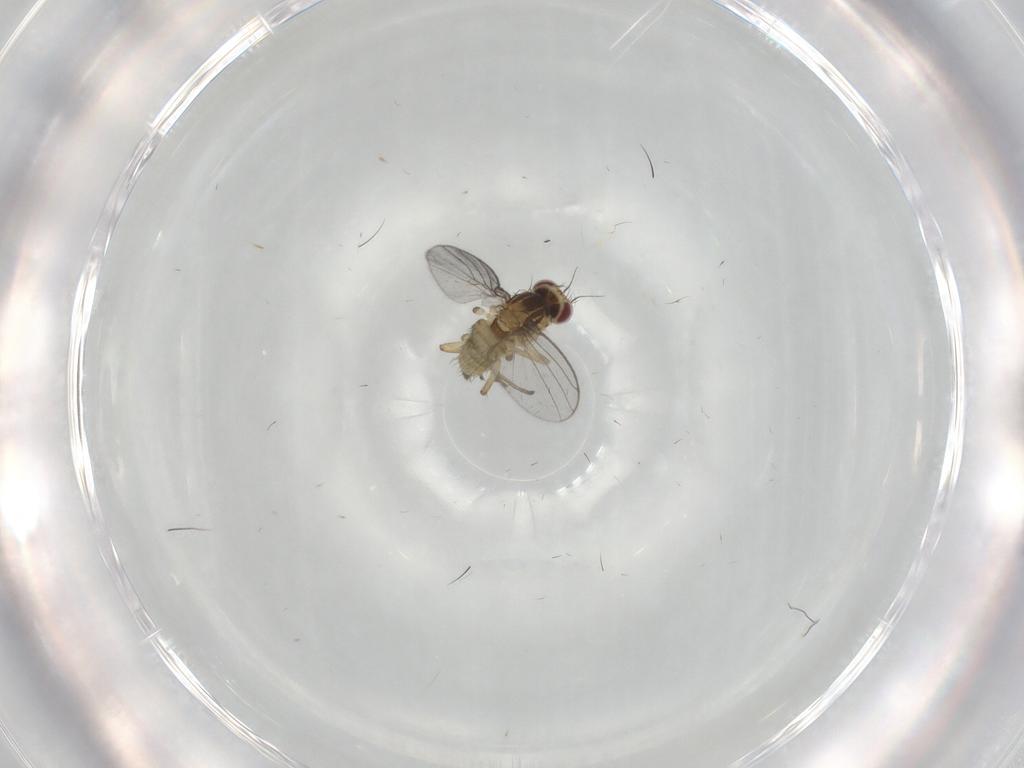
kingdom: Animalia
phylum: Arthropoda
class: Insecta
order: Diptera
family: Agromyzidae
